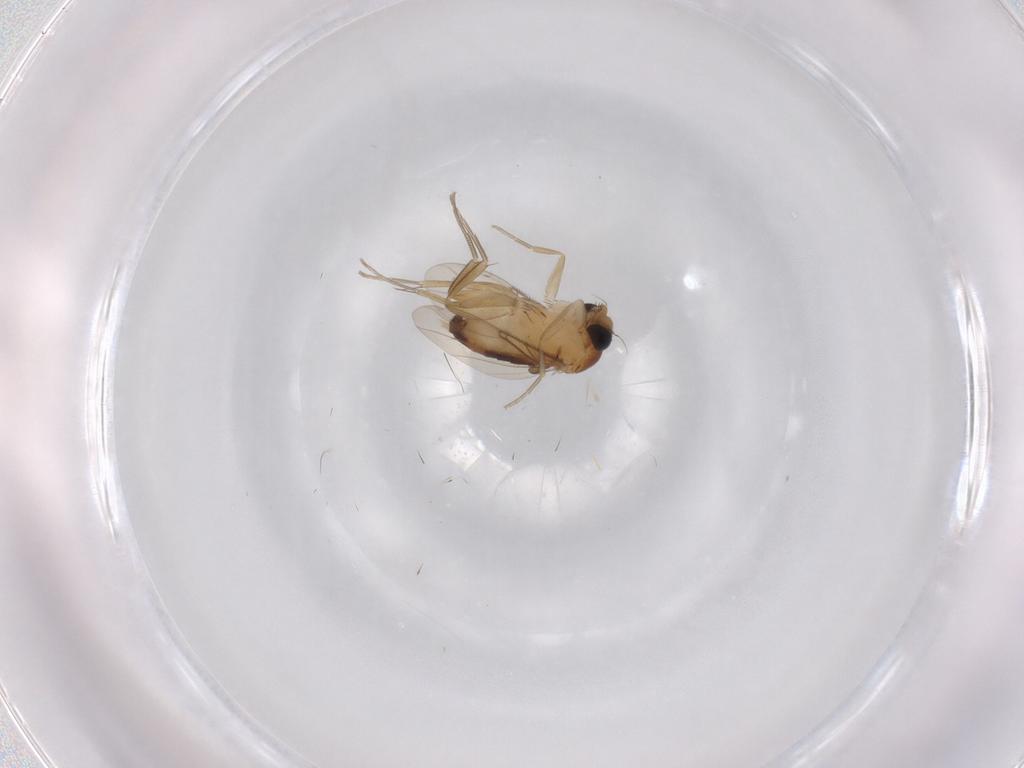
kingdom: Animalia
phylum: Arthropoda
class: Insecta
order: Diptera
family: Phoridae
